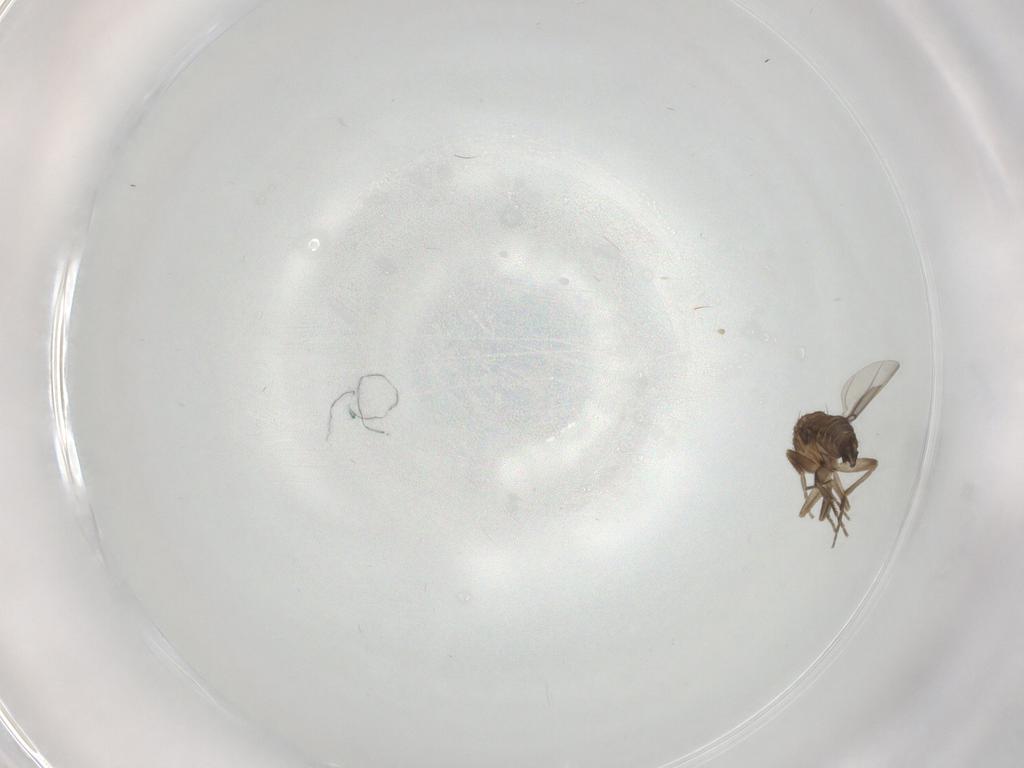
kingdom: Animalia
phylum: Arthropoda
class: Insecta
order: Diptera
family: Phoridae
